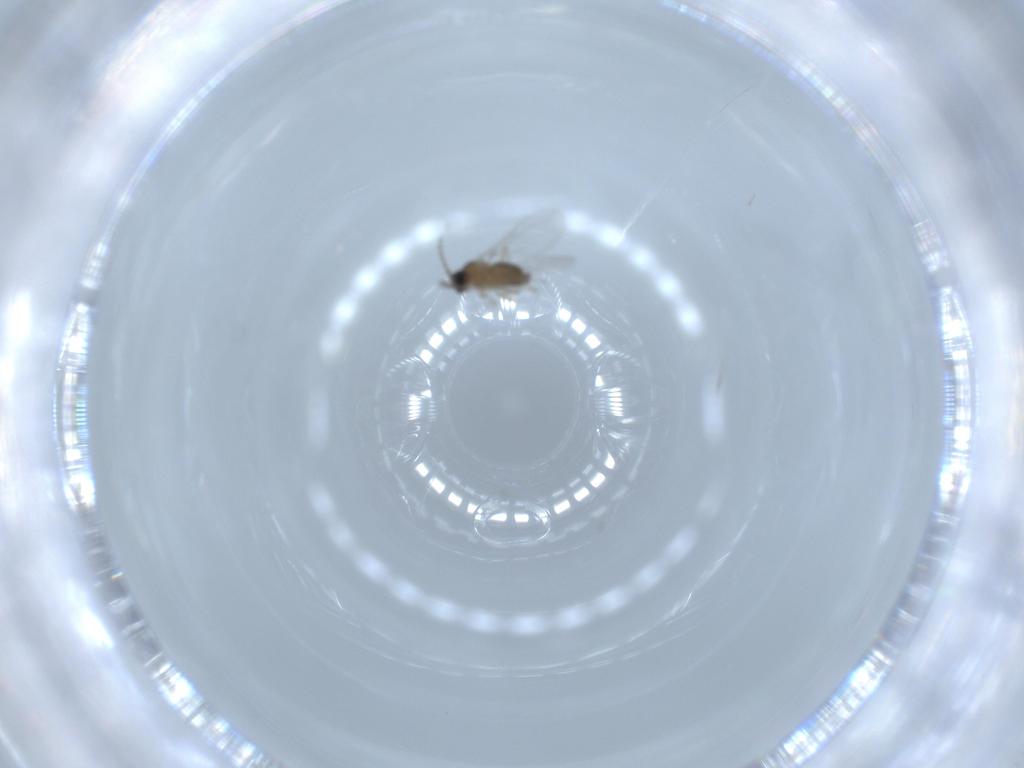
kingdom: Animalia
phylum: Arthropoda
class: Insecta
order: Diptera
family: Cecidomyiidae
